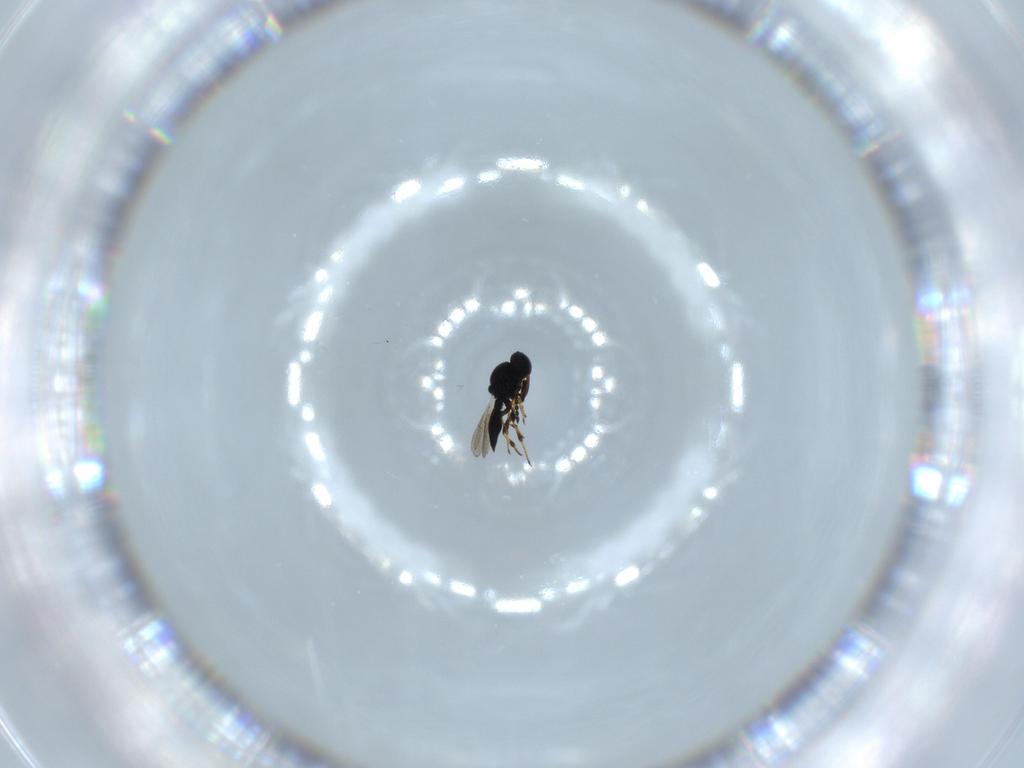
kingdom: Animalia
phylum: Arthropoda
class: Insecta
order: Hymenoptera
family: Platygastridae
